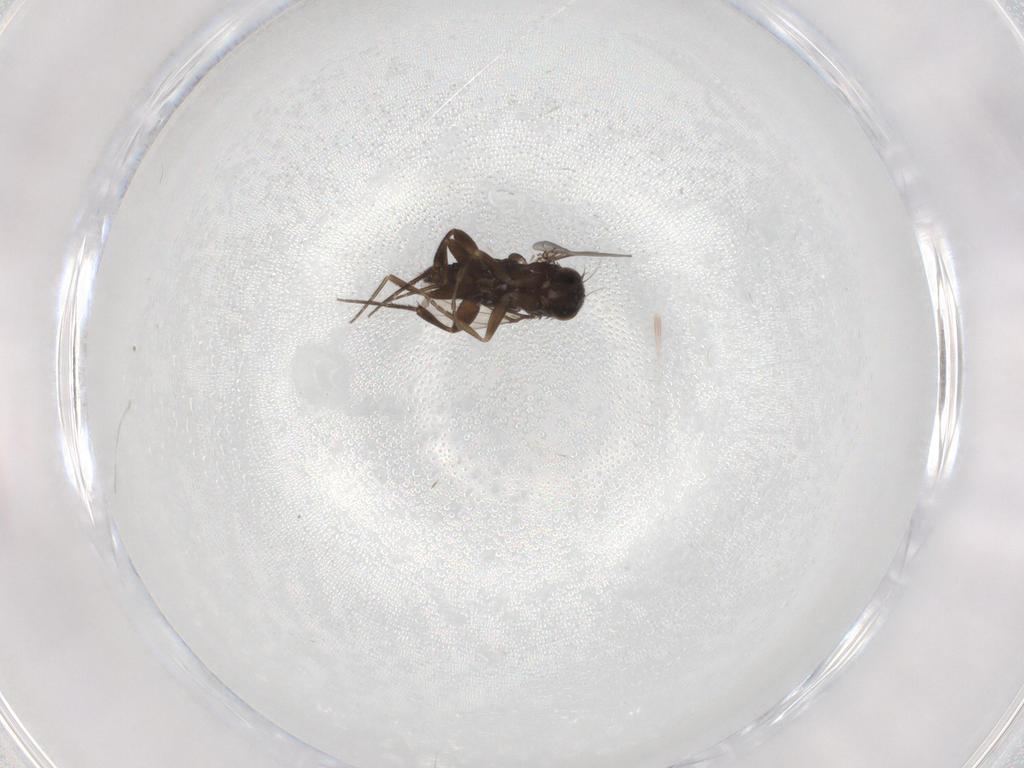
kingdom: Animalia
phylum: Arthropoda
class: Insecta
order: Diptera
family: Phoridae
